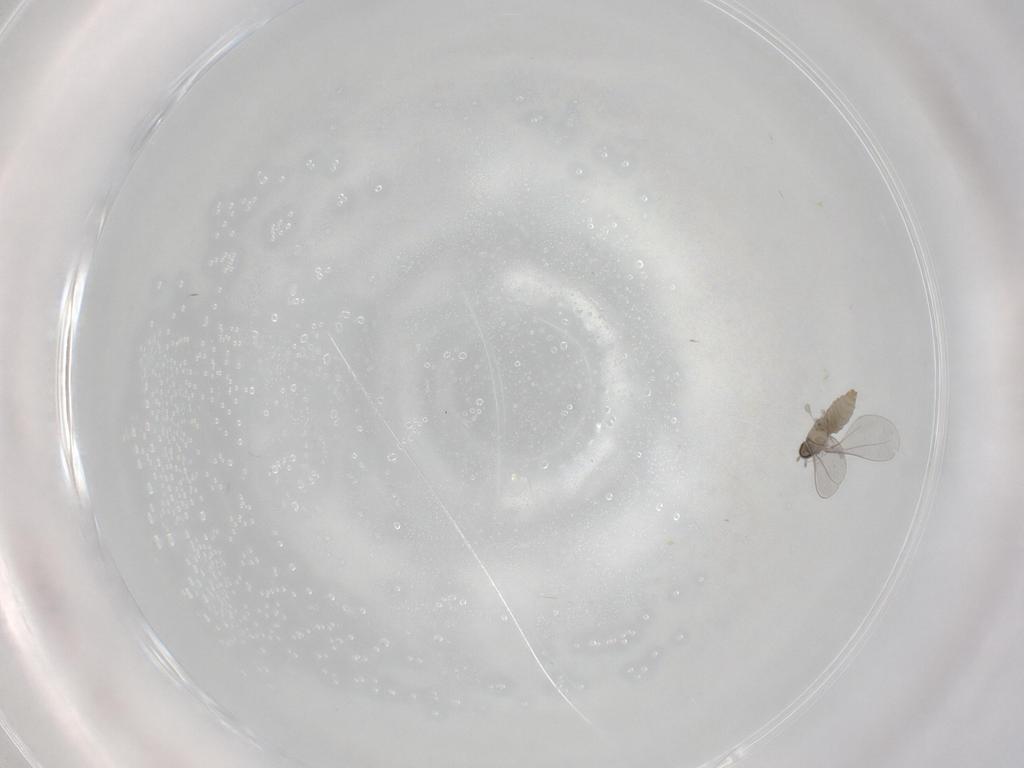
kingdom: Animalia
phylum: Arthropoda
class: Insecta
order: Diptera
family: Cecidomyiidae
